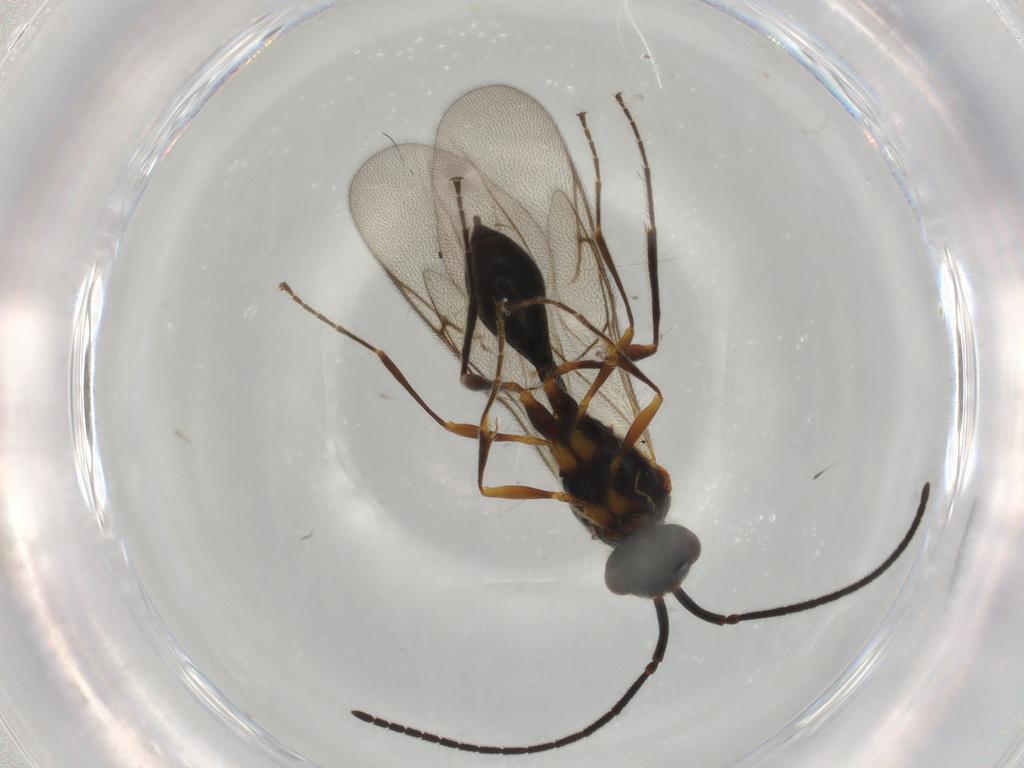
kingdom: Animalia
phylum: Arthropoda
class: Insecta
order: Hymenoptera
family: Diapriidae
